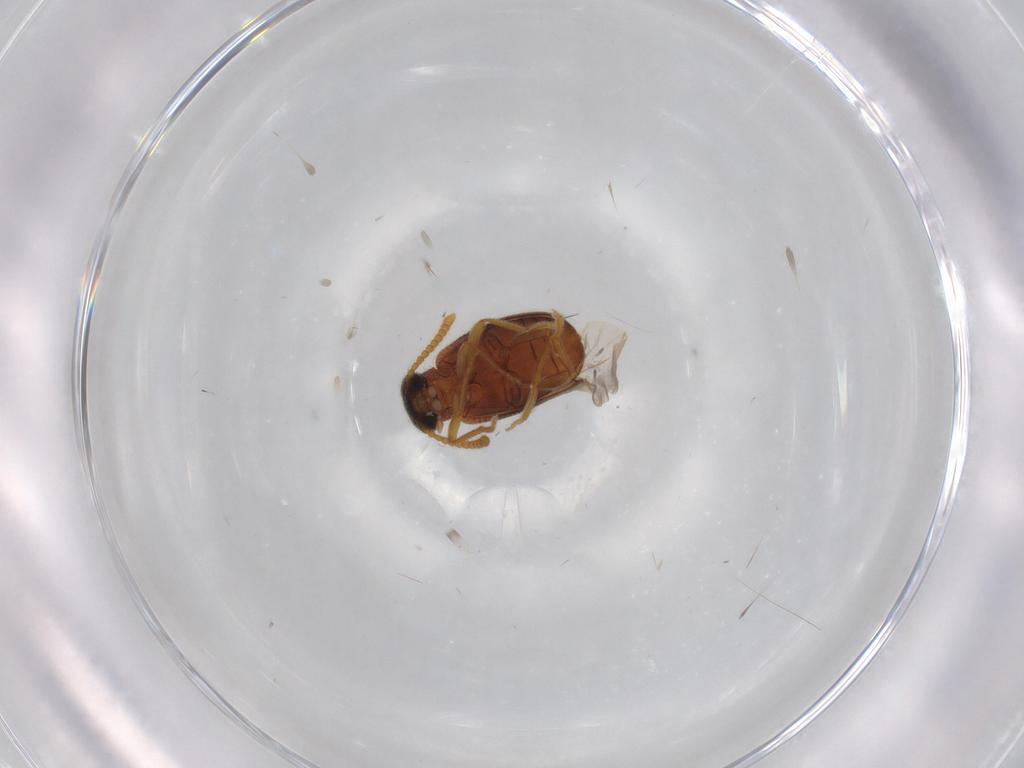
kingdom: Animalia
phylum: Arthropoda
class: Insecta
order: Coleoptera
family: Aderidae
